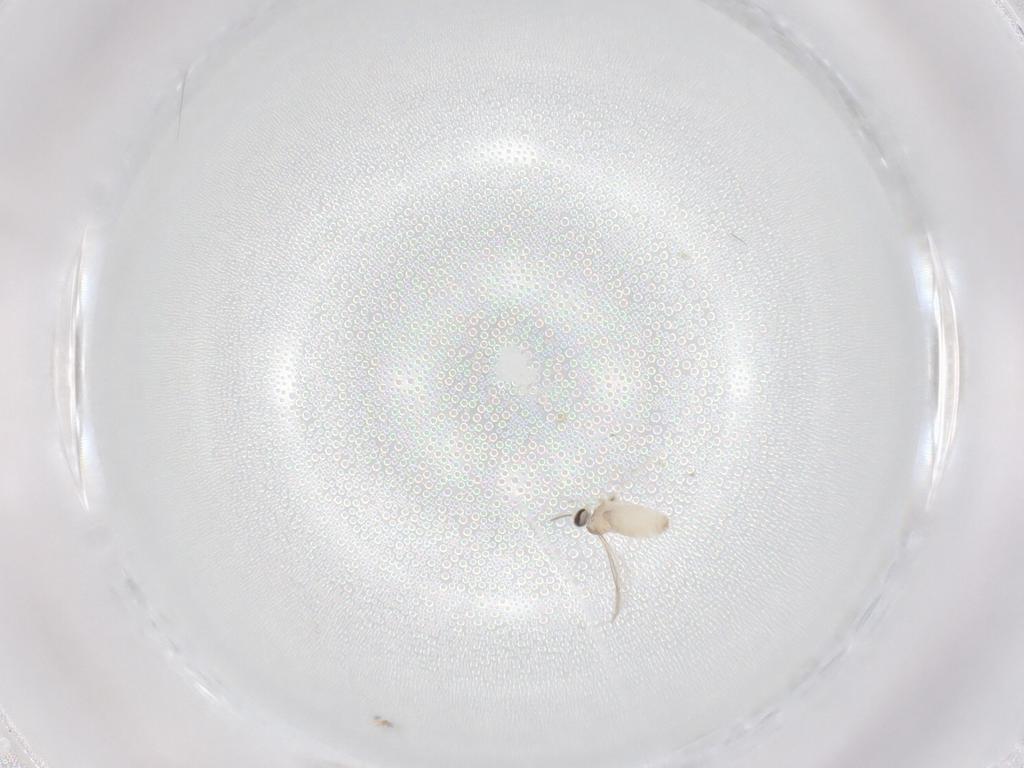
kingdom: Animalia
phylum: Arthropoda
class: Insecta
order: Diptera
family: Cecidomyiidae
